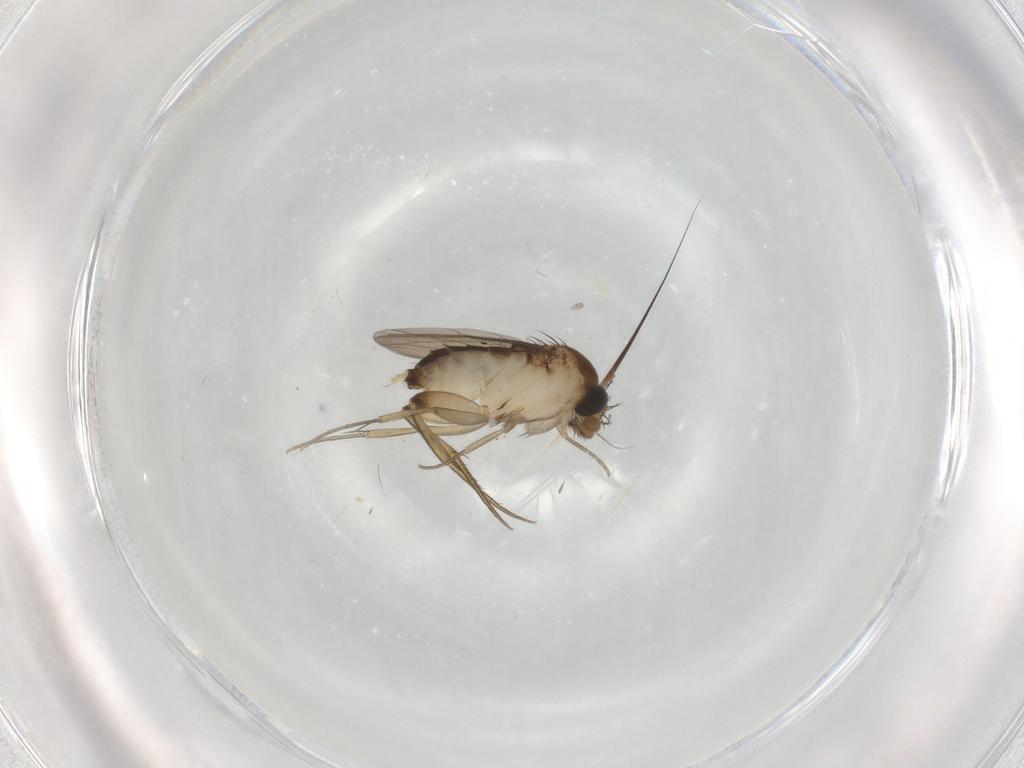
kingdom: Animalia
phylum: Arthropoda
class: Insecta
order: Diptera
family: Phoridae
